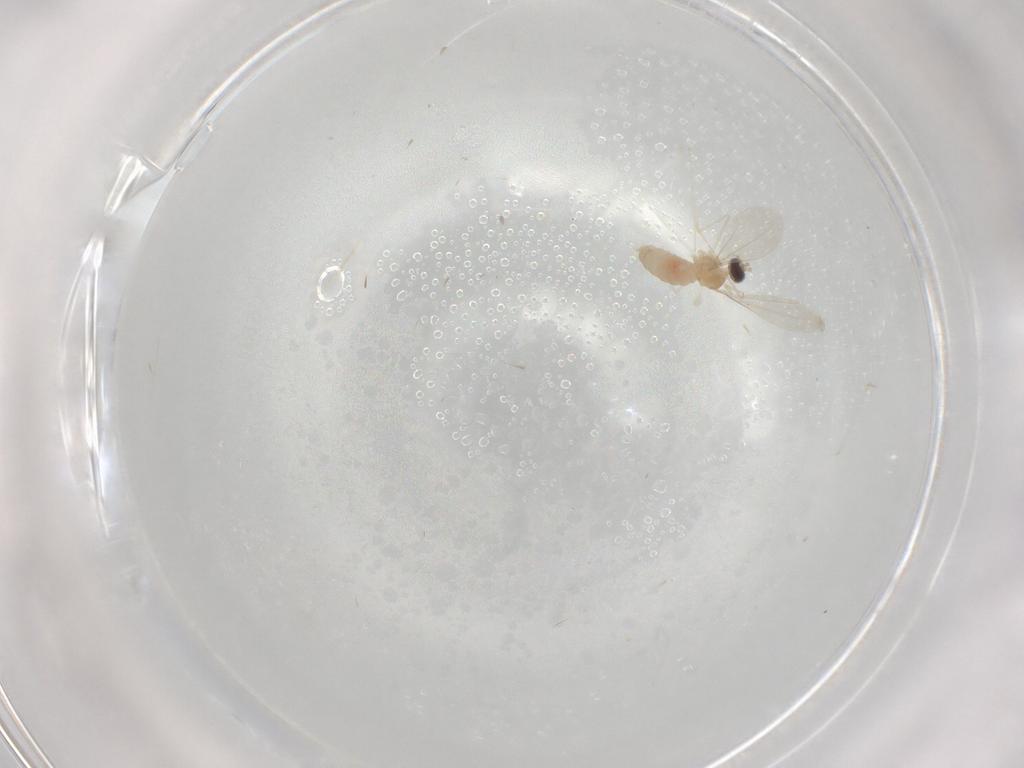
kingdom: Animalia
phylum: Arthropoda
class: Insecta
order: Diptera
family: Cecidomyiidae
